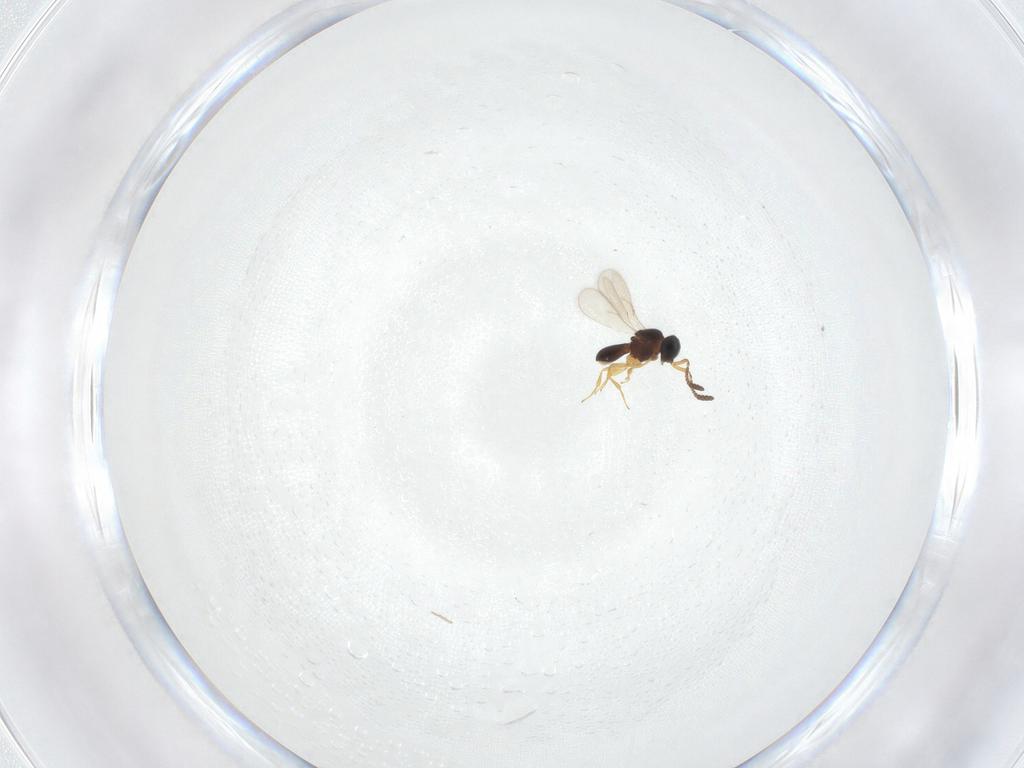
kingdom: Animalia
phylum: Arthropoda
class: Insecta
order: Hymenoptera
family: Scelionidae
